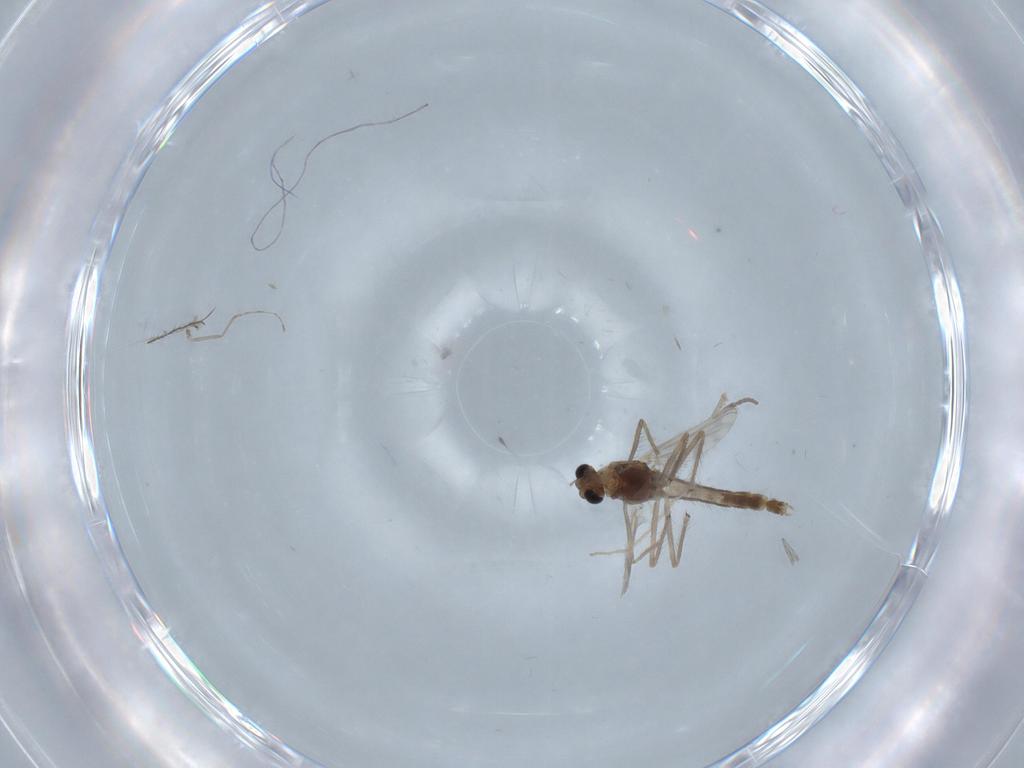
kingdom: Animalia
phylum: Arthropoda
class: Insecta
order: Diptera
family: Chironomidae
